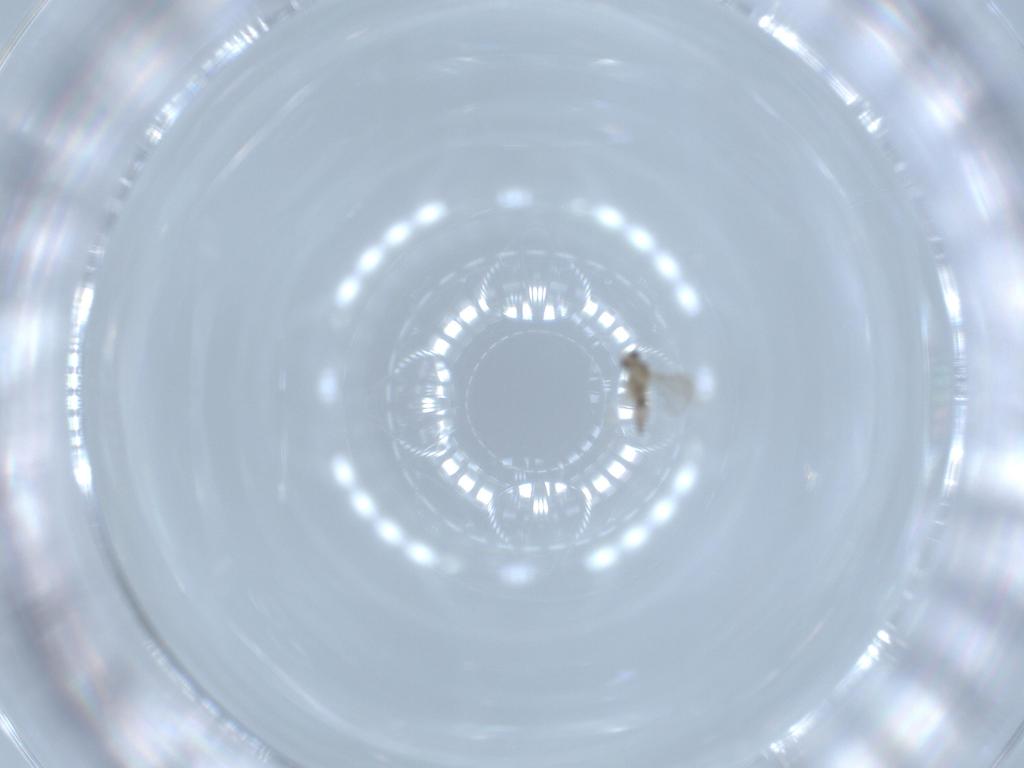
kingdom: Animalia
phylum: Arthropoda
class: Insecta
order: Diptera
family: Cecidomyiidae
